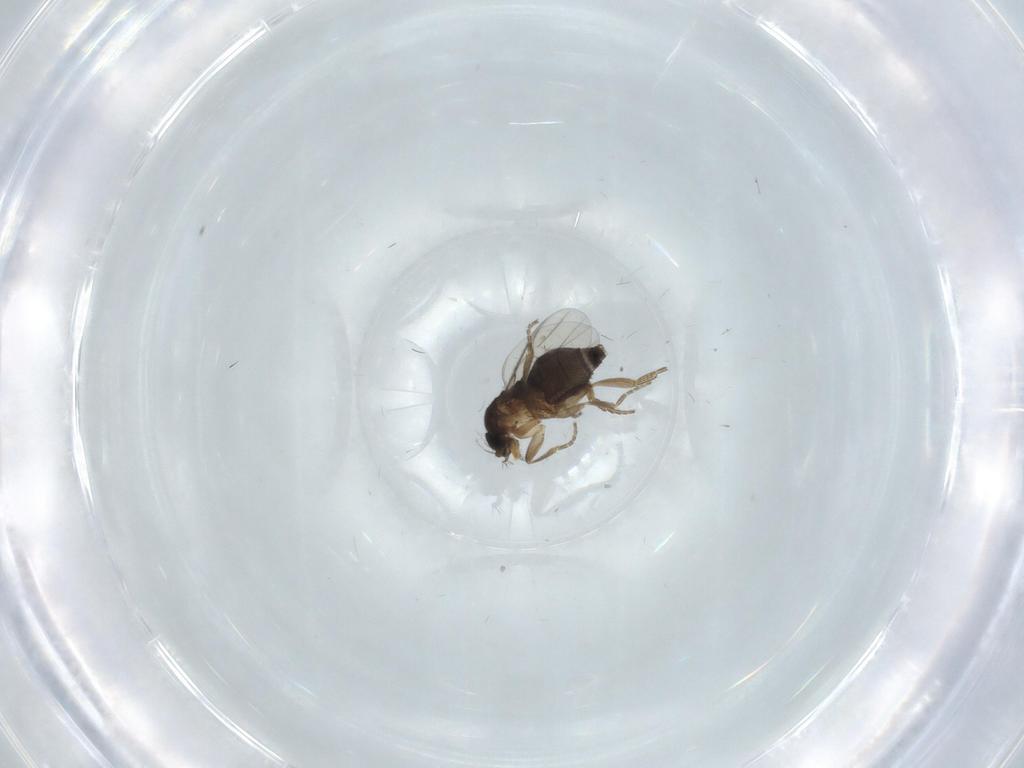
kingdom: Animalia
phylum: Arthropoda
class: Insecta
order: Diptera
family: Phoridae
